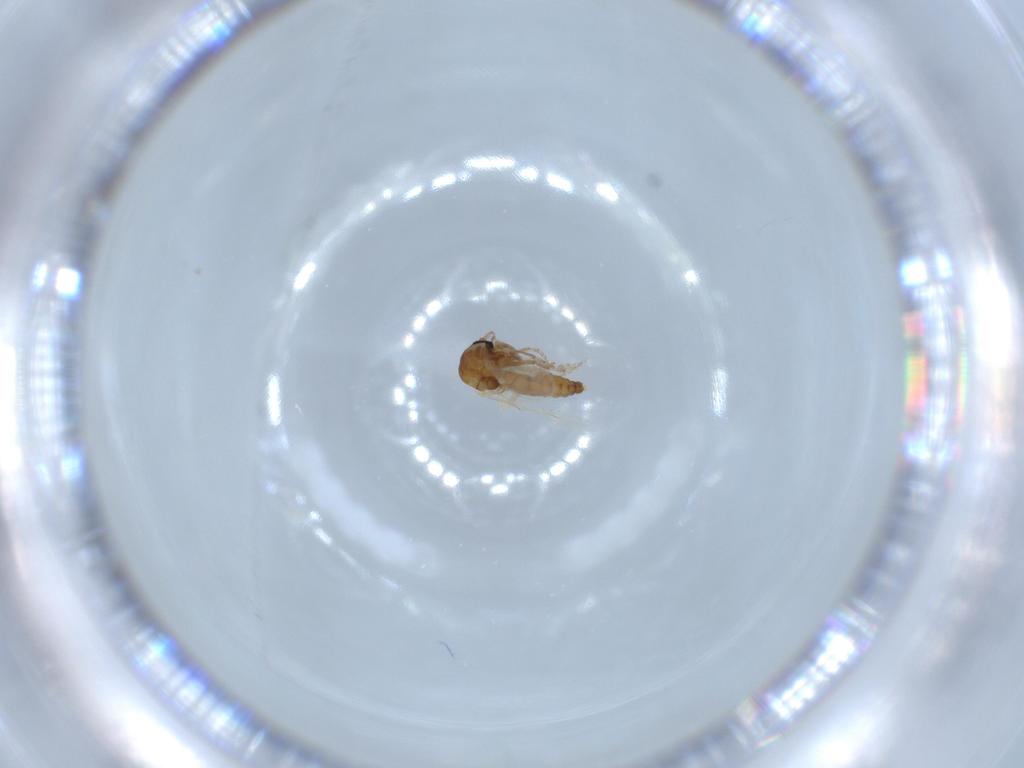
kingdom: Animalia
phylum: Arthropoda
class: Insecta
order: Diptera
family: Ceratopogonidae
